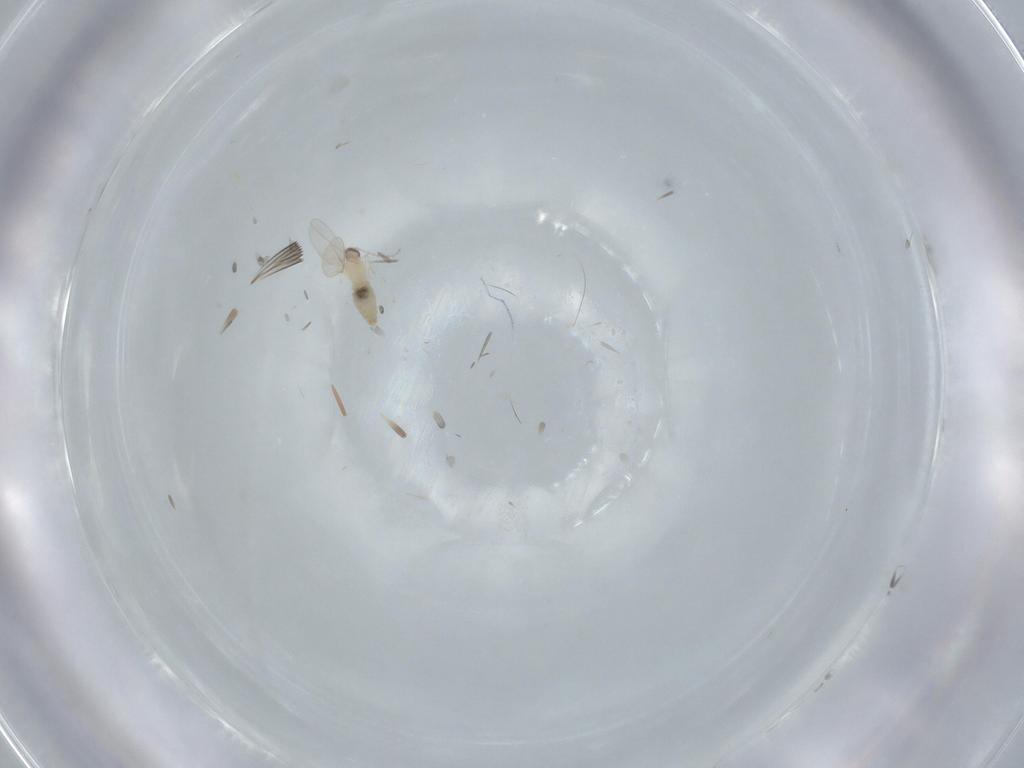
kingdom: Animalia
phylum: Arthropoda
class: Insecta
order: Diptera
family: Cecidomyiidae
